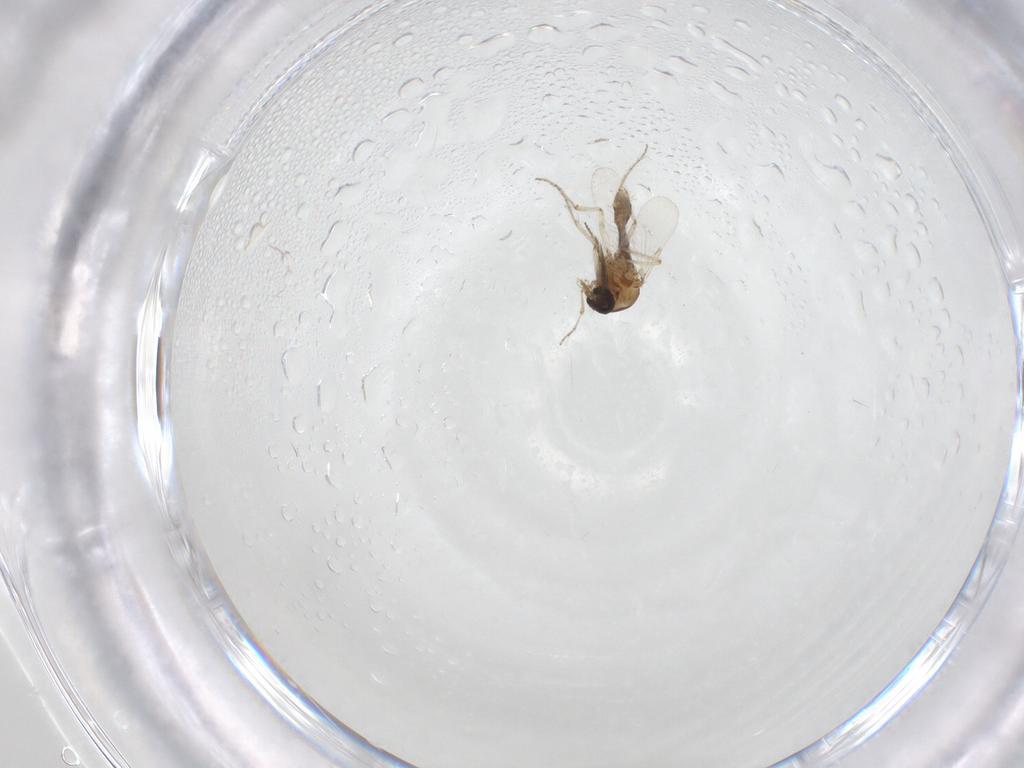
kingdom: Animalia
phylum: Arthropoda
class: Insecta
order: Diptera
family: Ceratopogonidae
